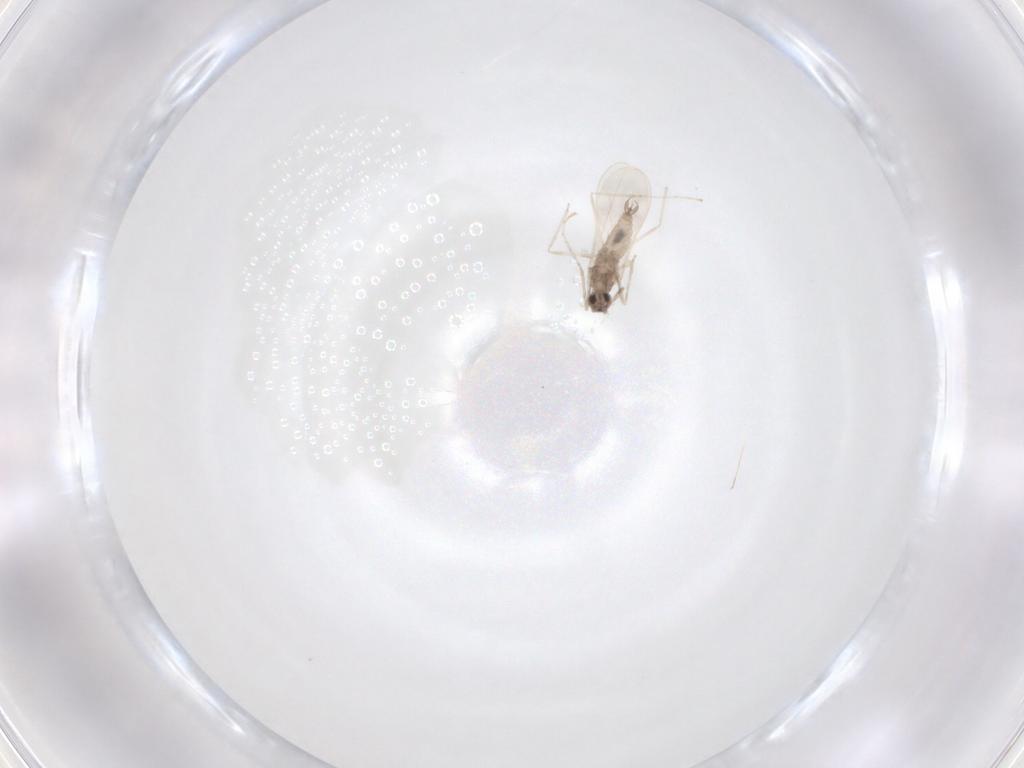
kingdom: Animalia
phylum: Arthropoda
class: Insecta
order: Diptera
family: Cecidomyiidae
